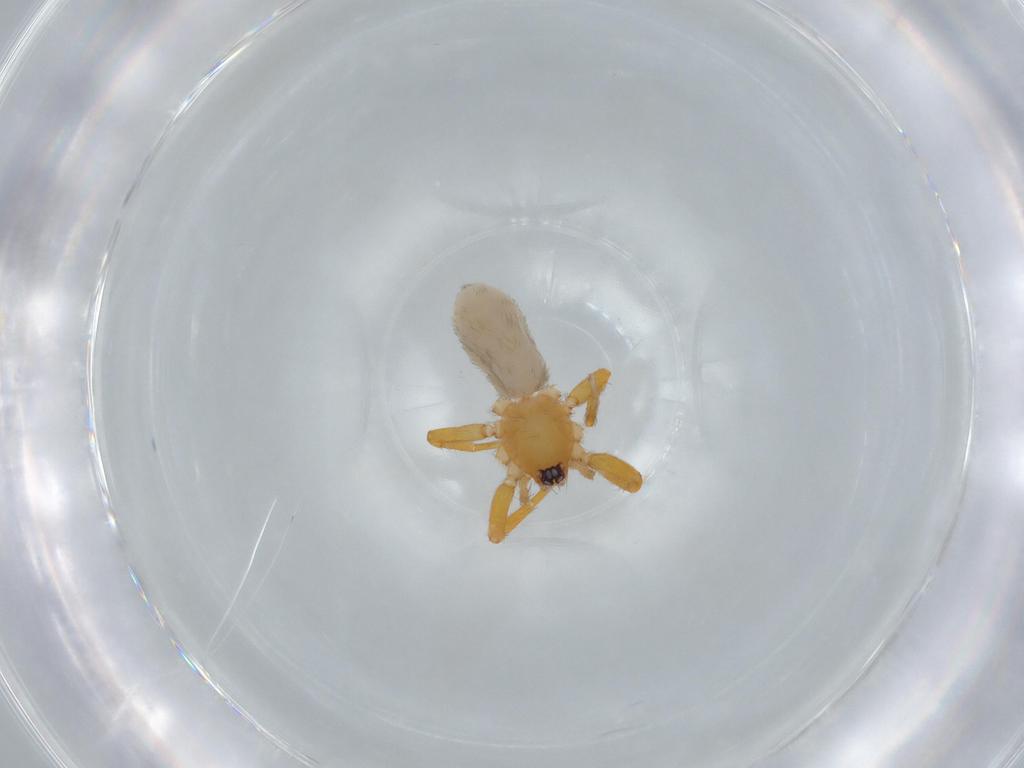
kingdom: Animalia
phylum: Arthropoda
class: Arachnida
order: Araneae
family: Oonopidae
